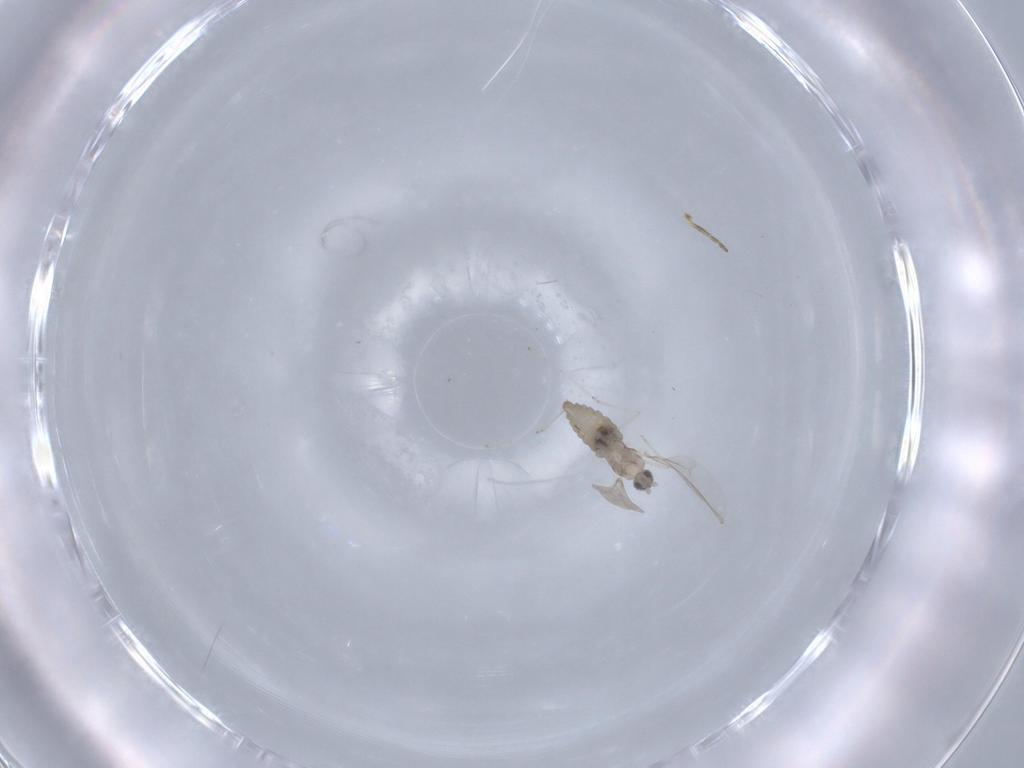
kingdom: Animalia
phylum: Arthropoda
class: Insecta
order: Diptera
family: Cecidomyiidae
